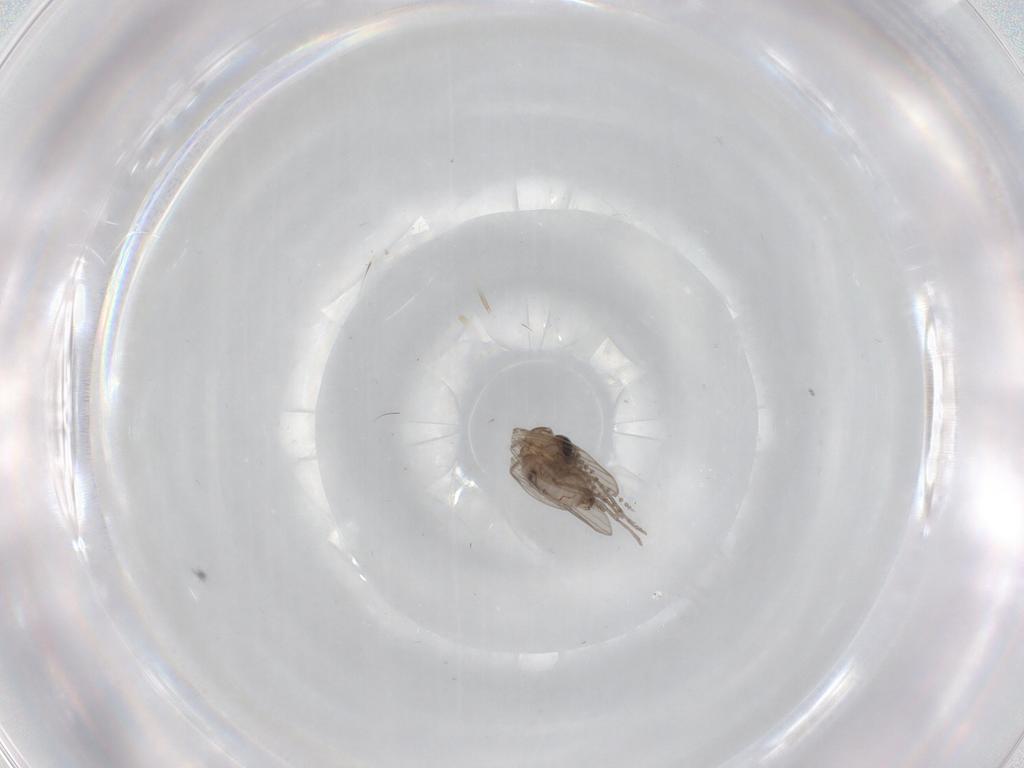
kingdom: Animalia
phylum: Arthropoda
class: Insecta
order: Diptera
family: Psychodidae
